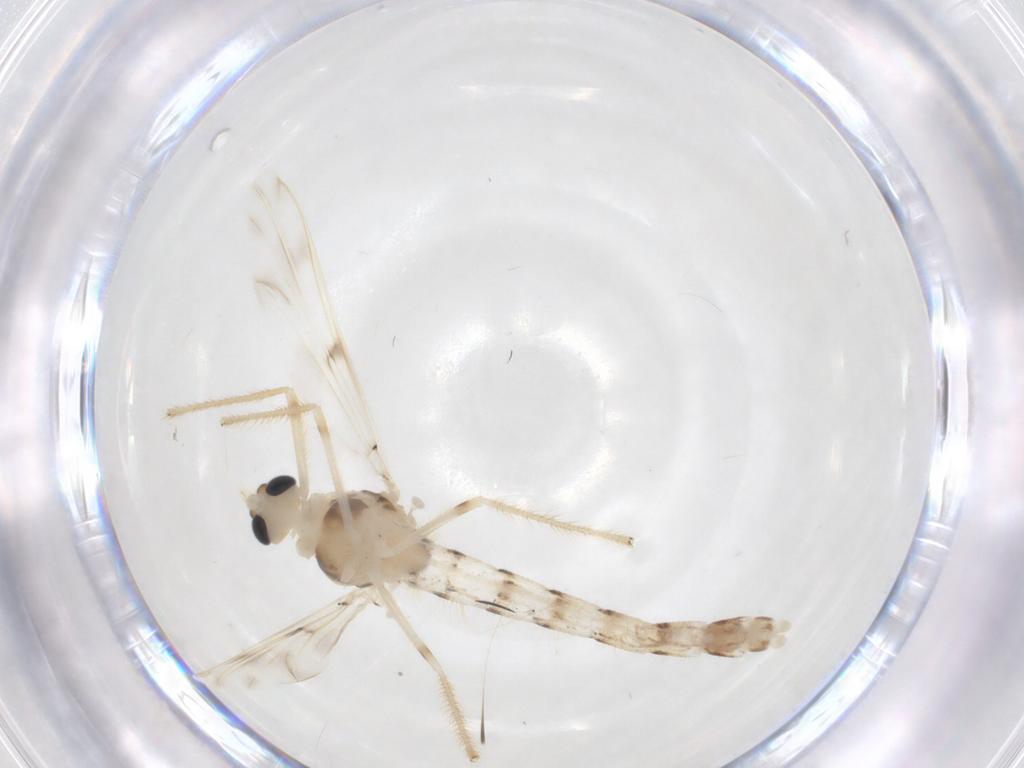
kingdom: Animalia
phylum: Arthropoda
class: Insecta
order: Diptera
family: Chironomidae
